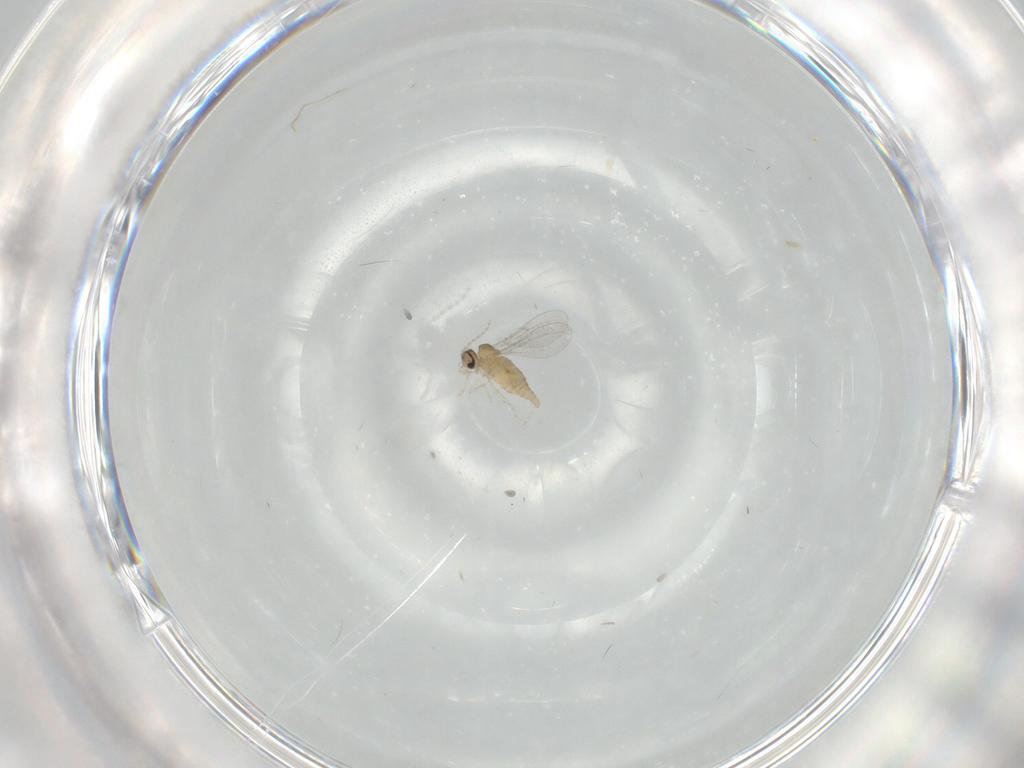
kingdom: Animalia
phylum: Arthropoda
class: Insecta
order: Diptera
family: Cecidomyiidae
